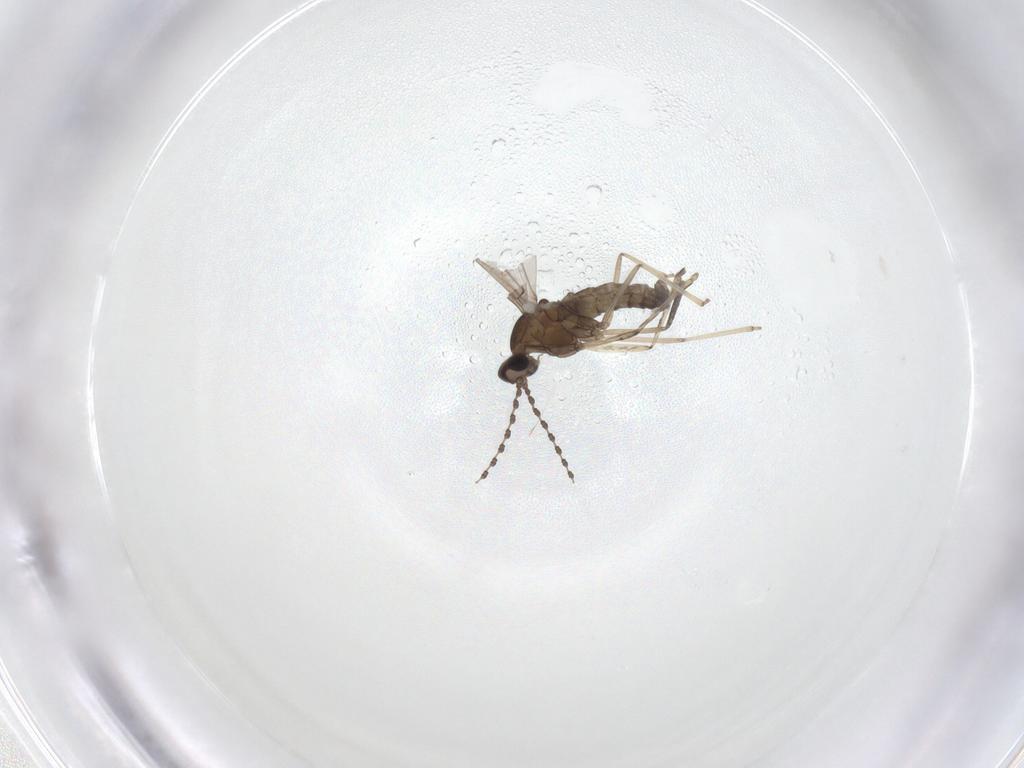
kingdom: Animalia
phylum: Arthropoda
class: Insecta
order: Diptera
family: Cecidomyiidae
